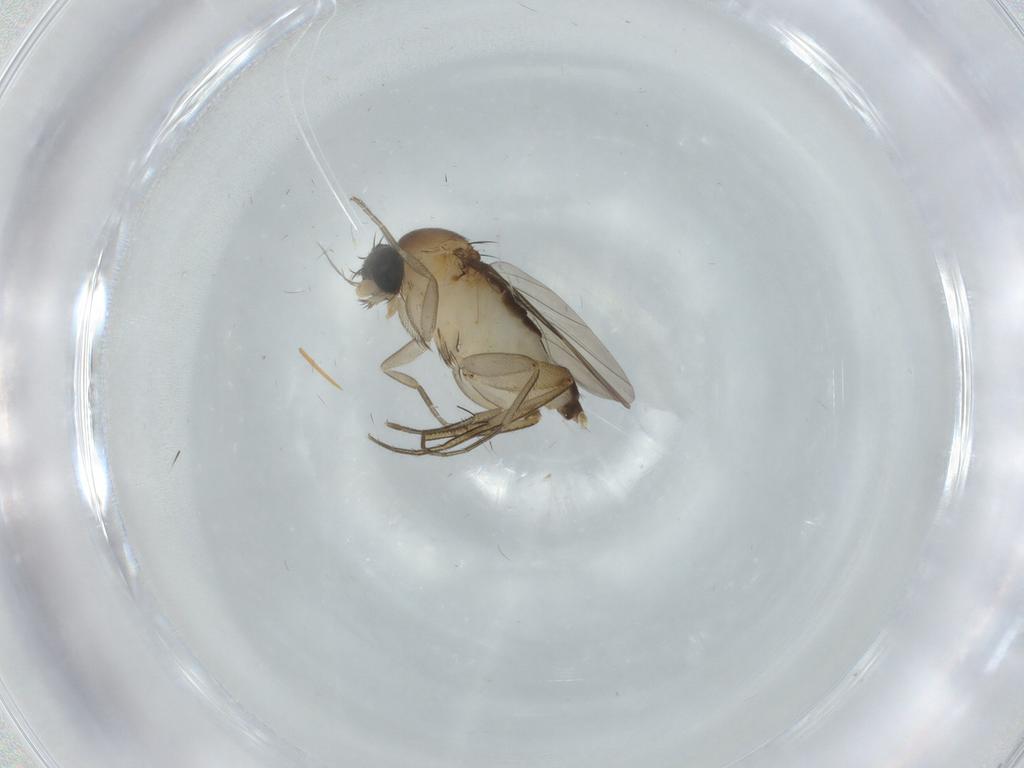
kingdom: Animalia
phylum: Arthropoda
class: Insecta
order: Diptera
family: Phoridae
